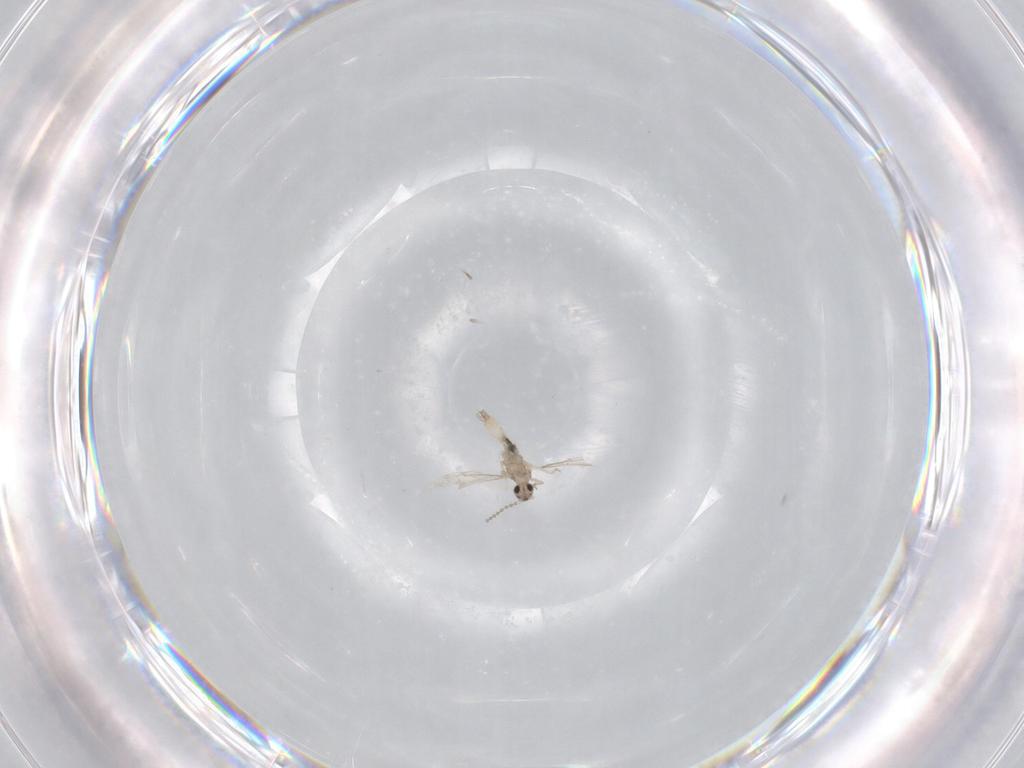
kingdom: Animalia
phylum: Arthropoda
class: Insecta
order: Diptera
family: Cecidomyiidae
